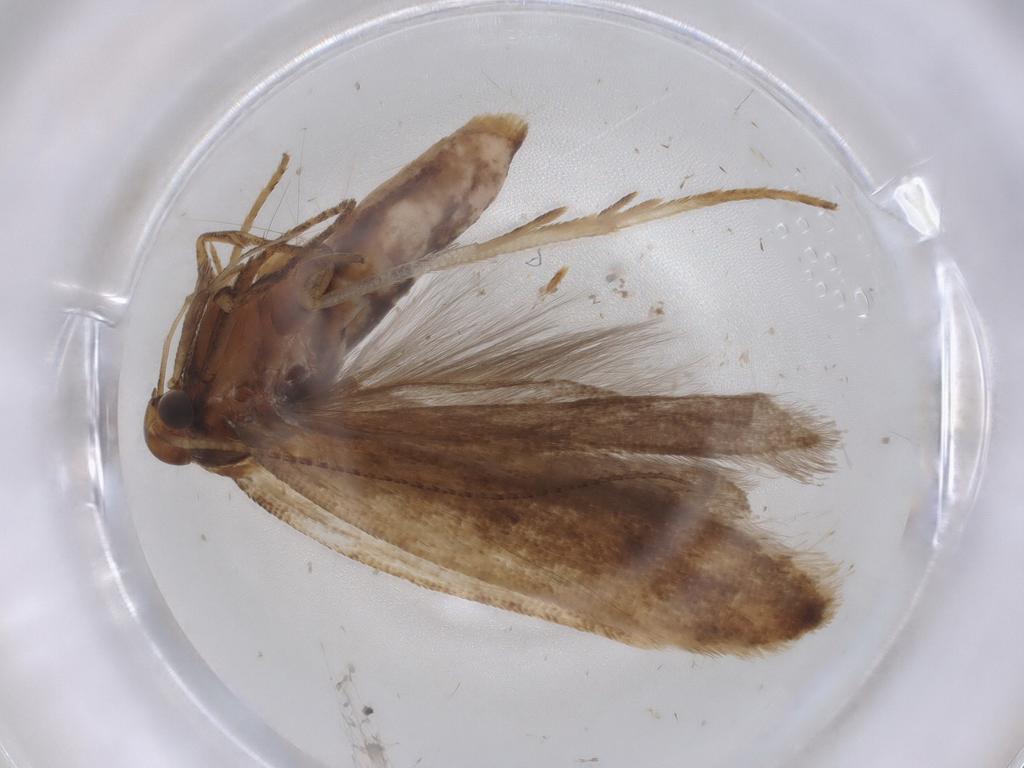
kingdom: Animalia
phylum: Arthropoda
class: Insecta
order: Lepidoptera
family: Gelechiidae
